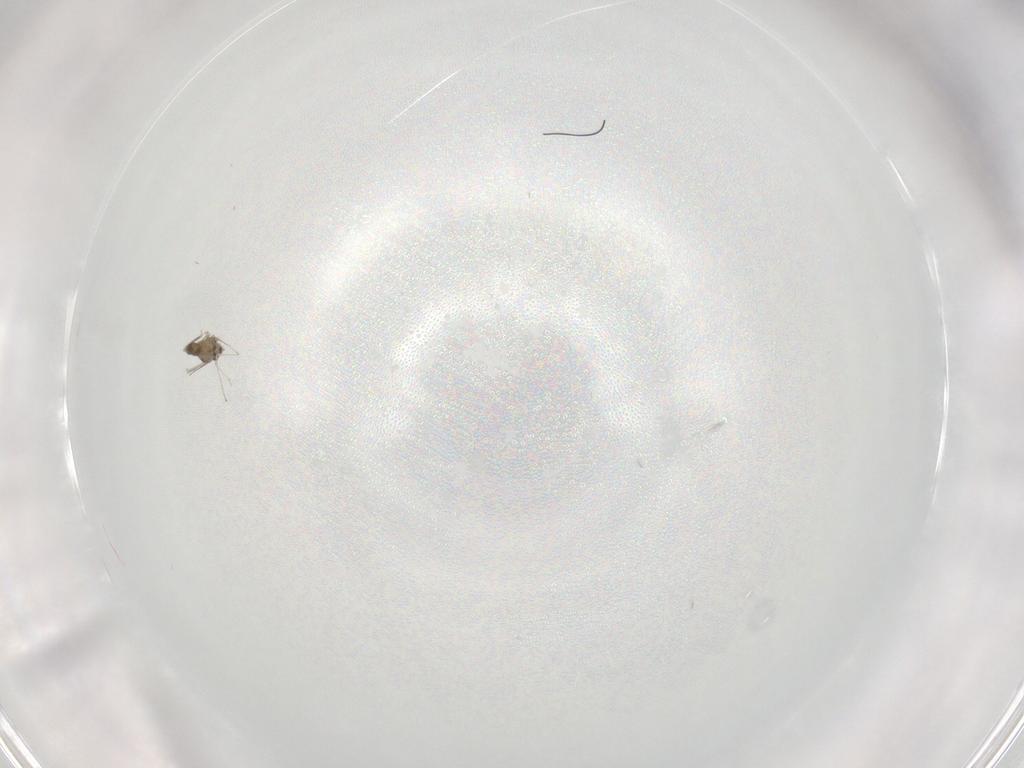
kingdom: Animalia
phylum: Arthropoda
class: Insecta
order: Diptera
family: Cecidomyiidae
